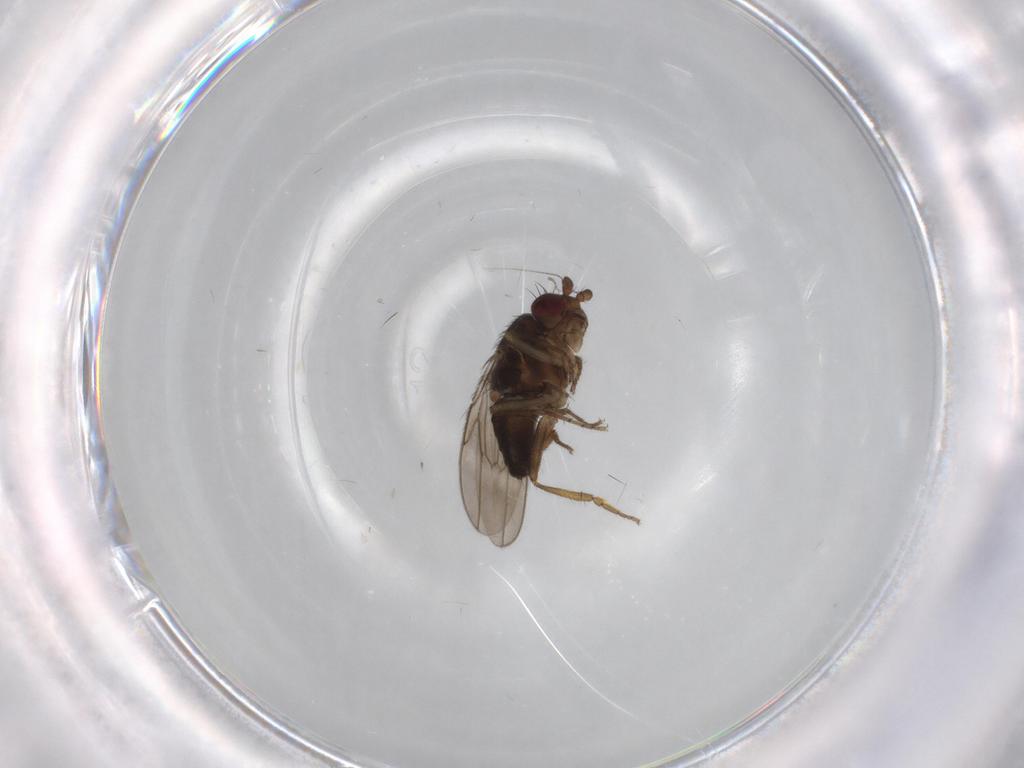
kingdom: Animalia
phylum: Arthropoda
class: Insecta
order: Diptera
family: Sphaeroceridae
